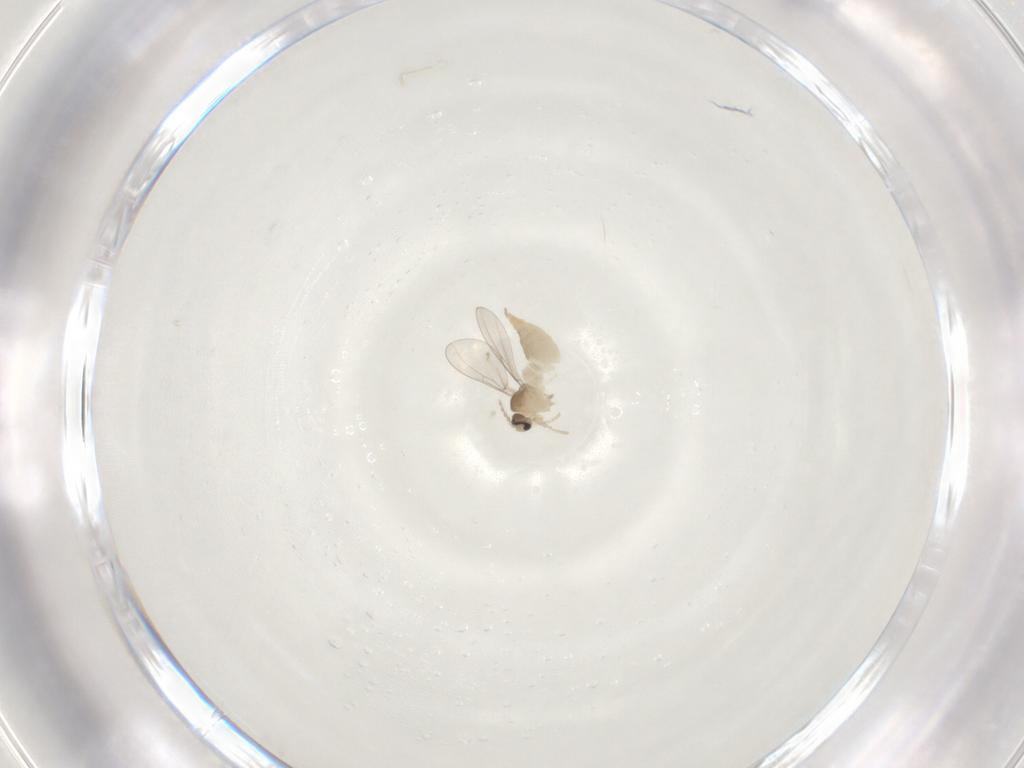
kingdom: Animalia
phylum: Arthropoda
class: Insecta
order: Diptera
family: Cecidomyiidae
